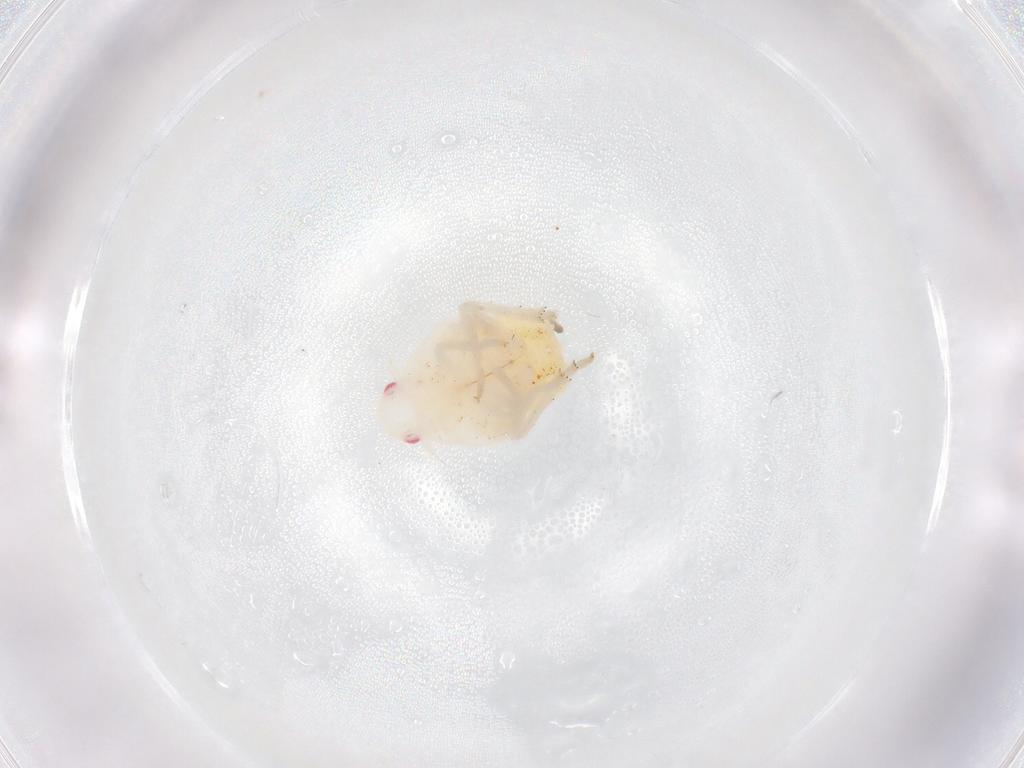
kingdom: Animalia
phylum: Arthropoda
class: Insecta
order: Hemiptera
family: Flatidae
